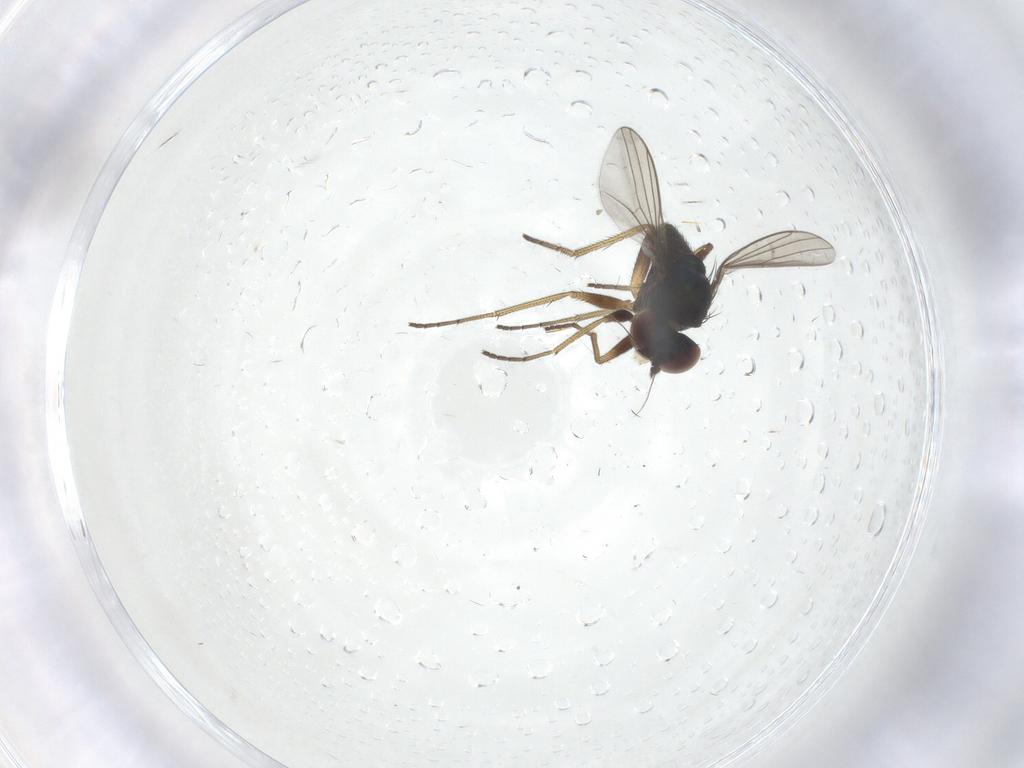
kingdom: Animalia
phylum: Arthropoda
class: Insecta
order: Diptera
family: Dolichopodidae
